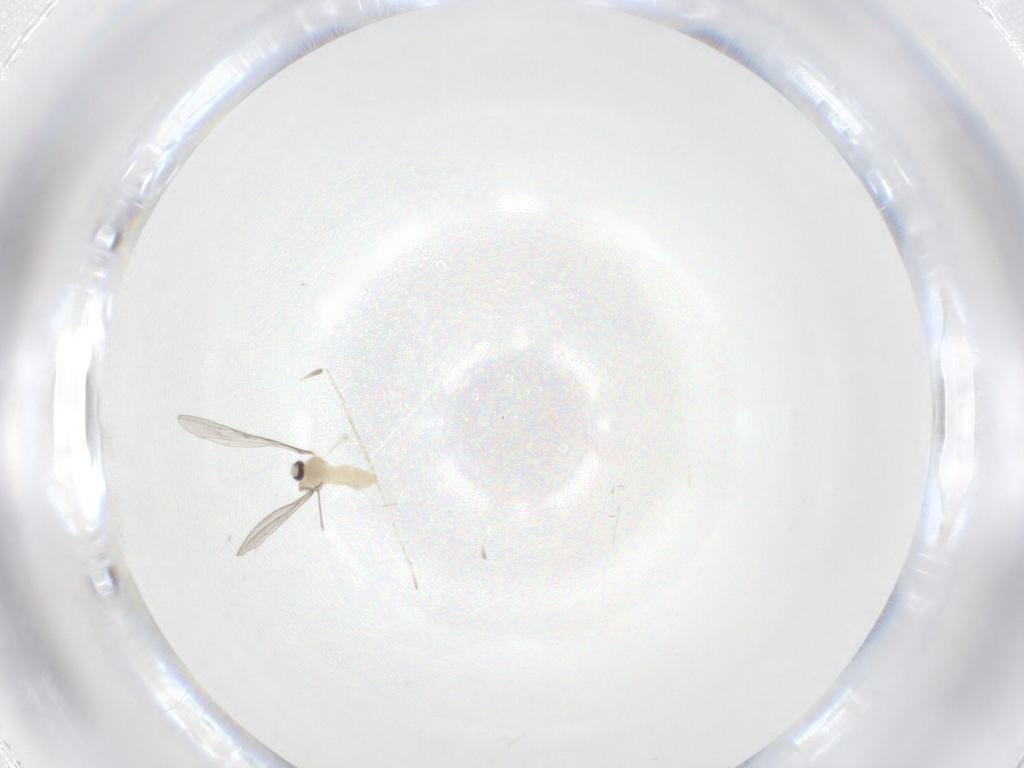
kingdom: Animalia
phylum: Arthropoda
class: Insecta
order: Diptera
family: Cecidomyiidae
